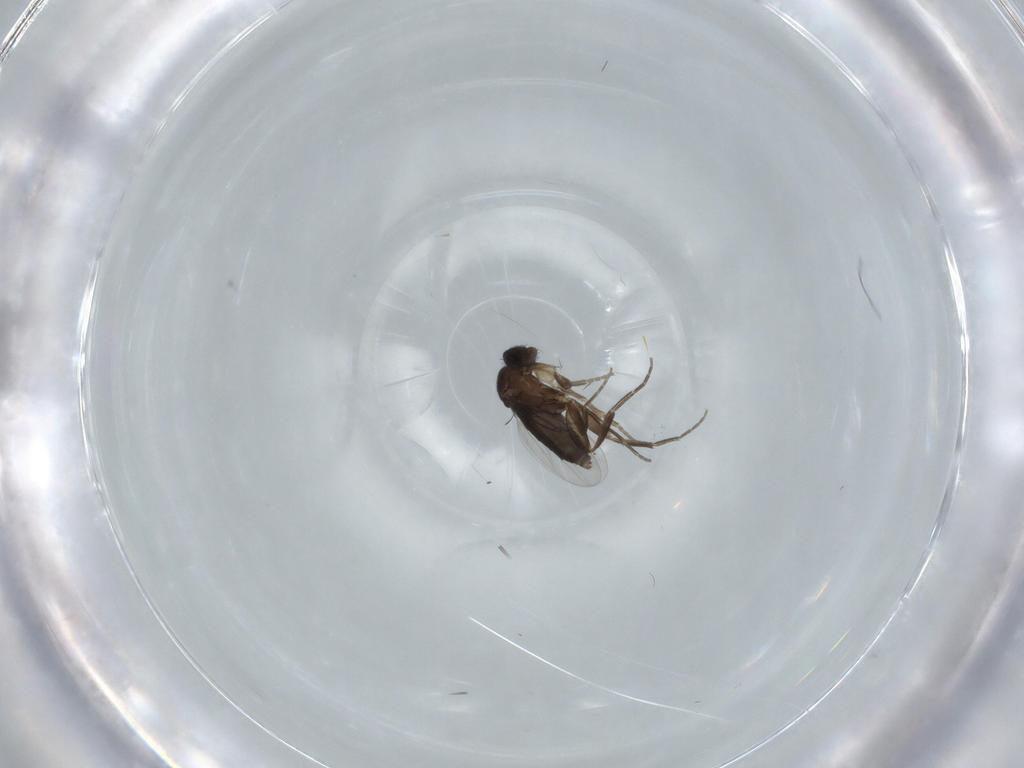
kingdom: Animalia
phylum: Arthropoda
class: Insecta
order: Diptera
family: Phoridae
